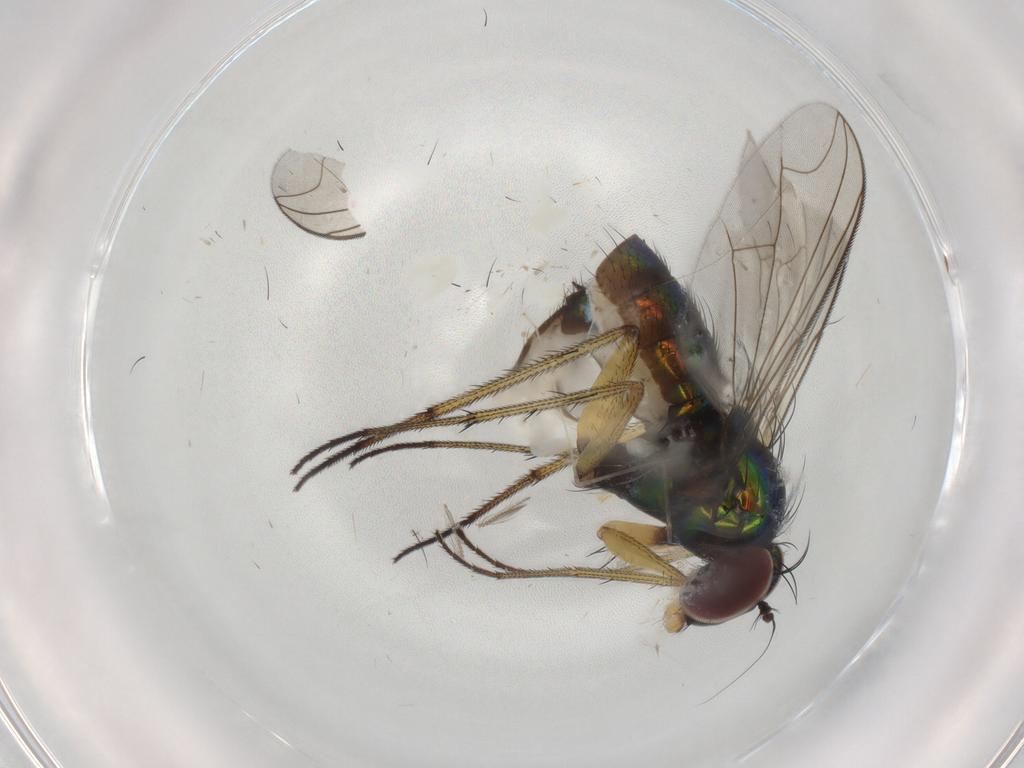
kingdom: Animalia
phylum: Arthropoda
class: Insecta
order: Diptera
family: Dolichopodidae
